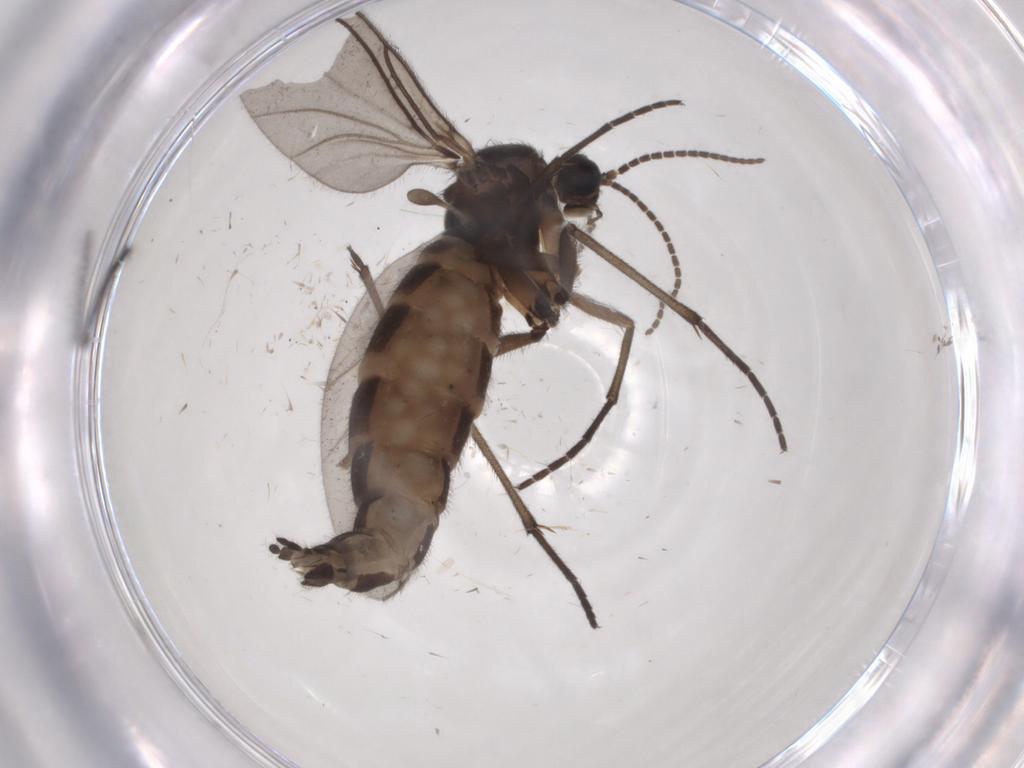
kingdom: Animalia
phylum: Arthropoda
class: Insecta
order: Diptera
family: Sciaridae
